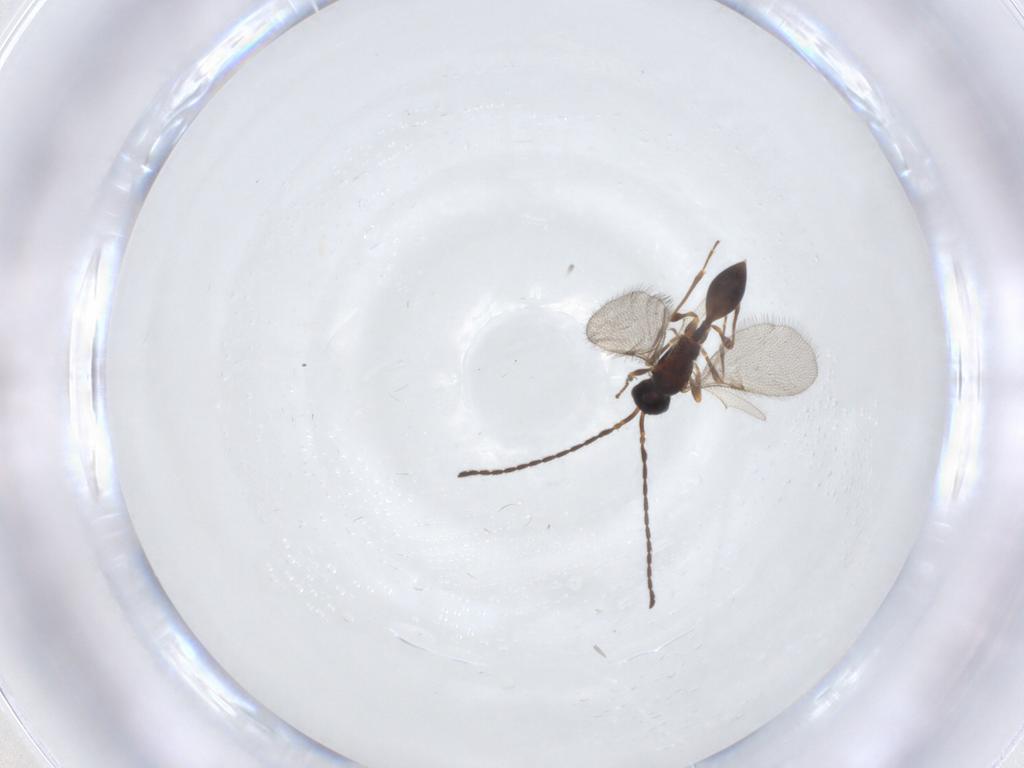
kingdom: Animalia
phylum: Arthropoda
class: Insecta
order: Hymenoptera
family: Diapriidae
